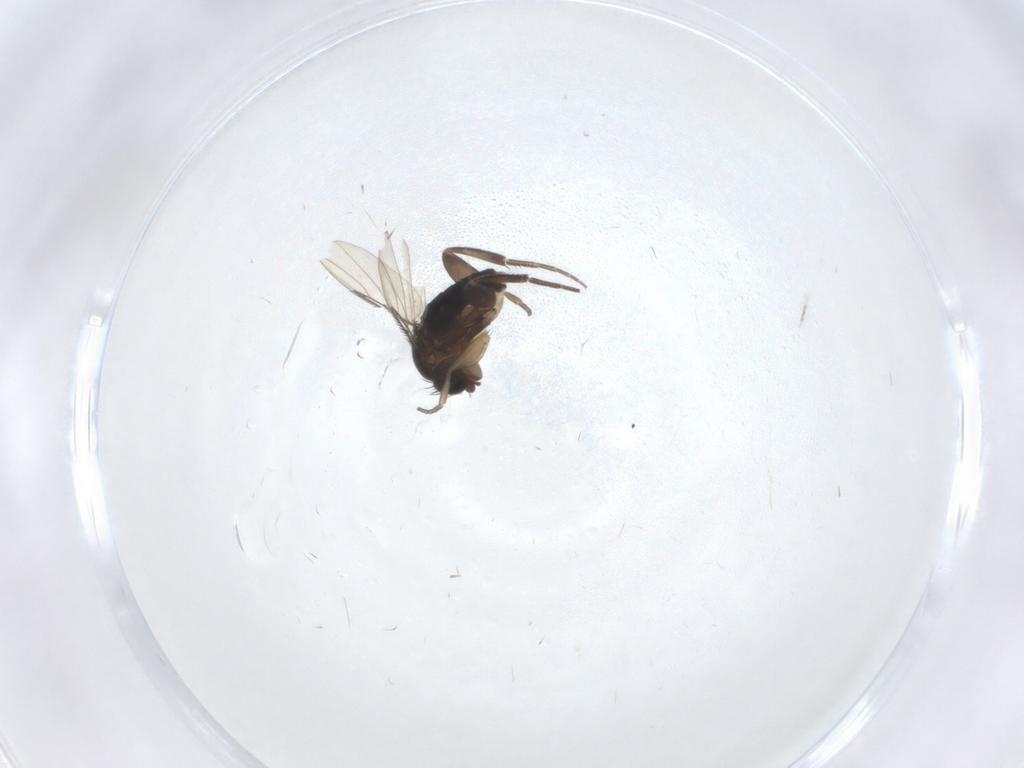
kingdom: Animalia
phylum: Arthropoda
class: Insecta
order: Diptera
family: Phoridae
